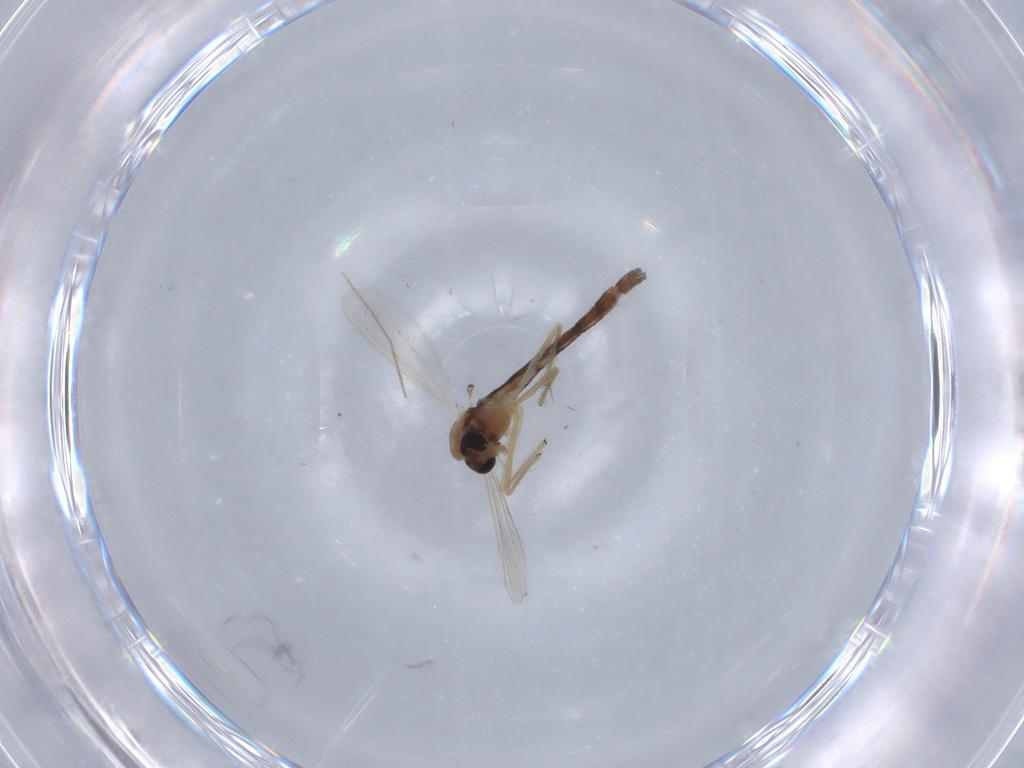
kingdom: Animalia
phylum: Arthropoda
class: Insecta
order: Diptera
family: Chironomidae
